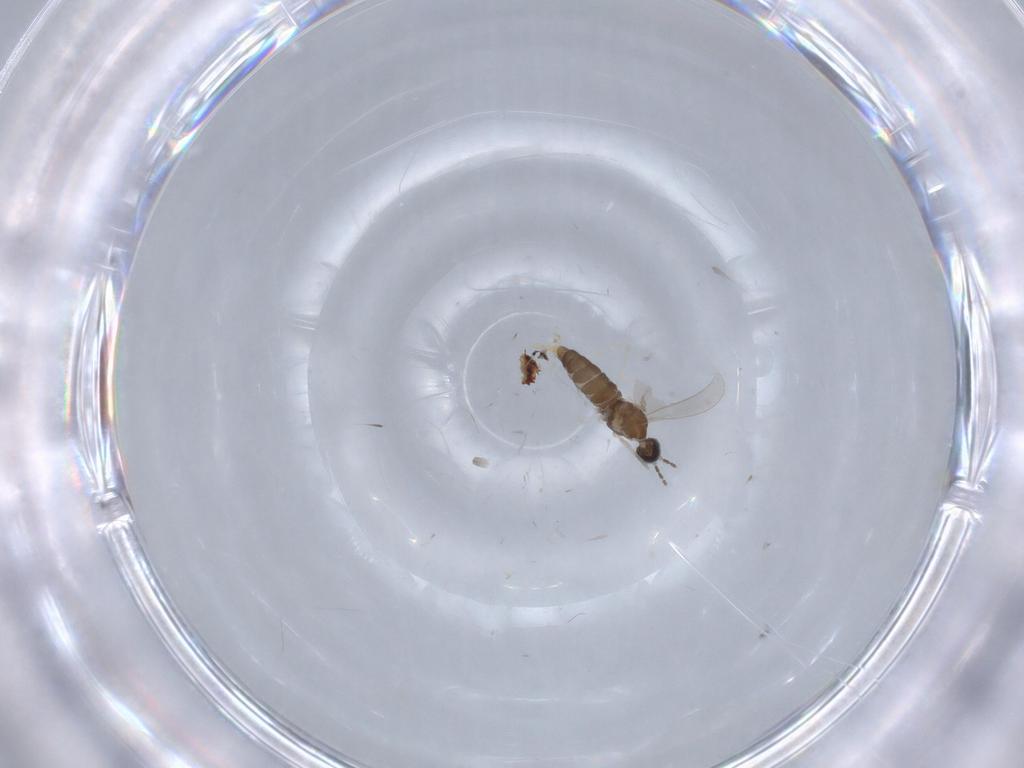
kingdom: Animalia
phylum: Arthropoda
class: Insecta
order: Diptera
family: Cecidomyiidae
